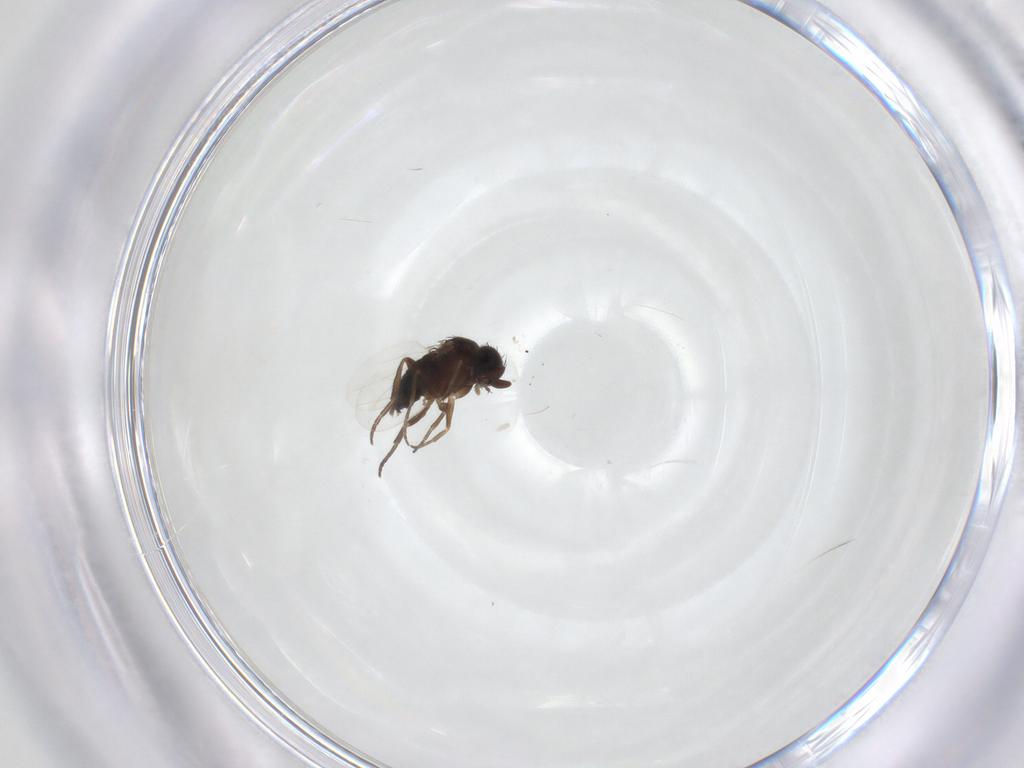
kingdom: Animalia
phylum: Arthropoda
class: Insecta
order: Diptera
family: Phoridae
